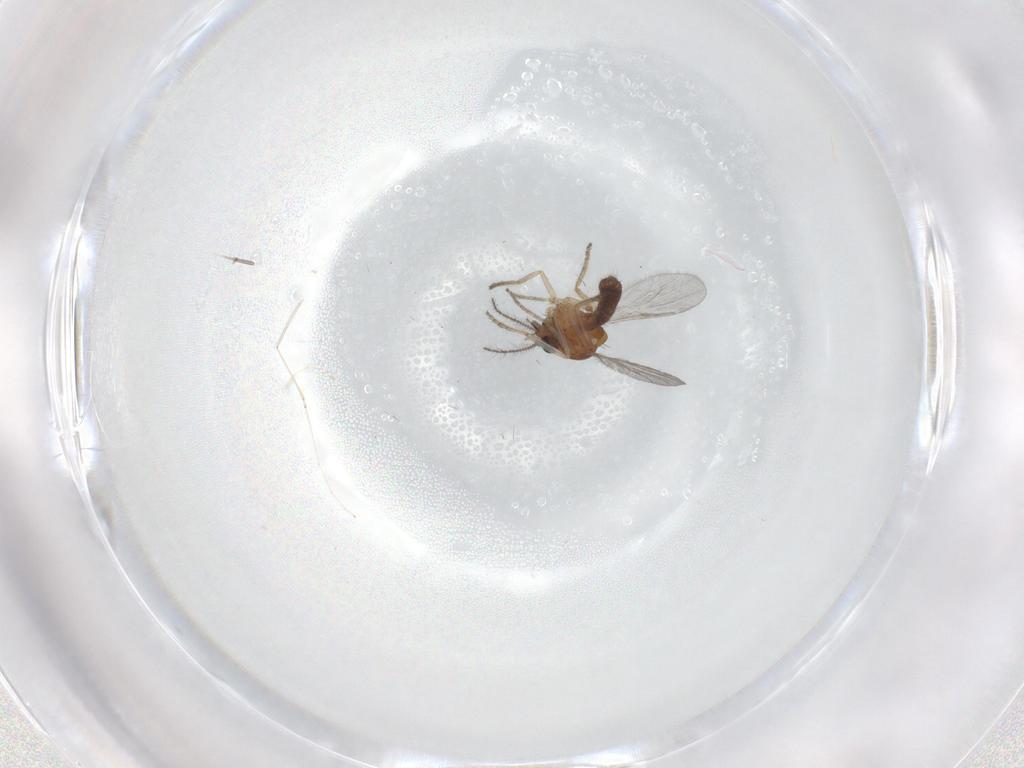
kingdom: Animalia
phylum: Arthropoda
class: Insecta
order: Diptera
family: Ceratopogonidae
